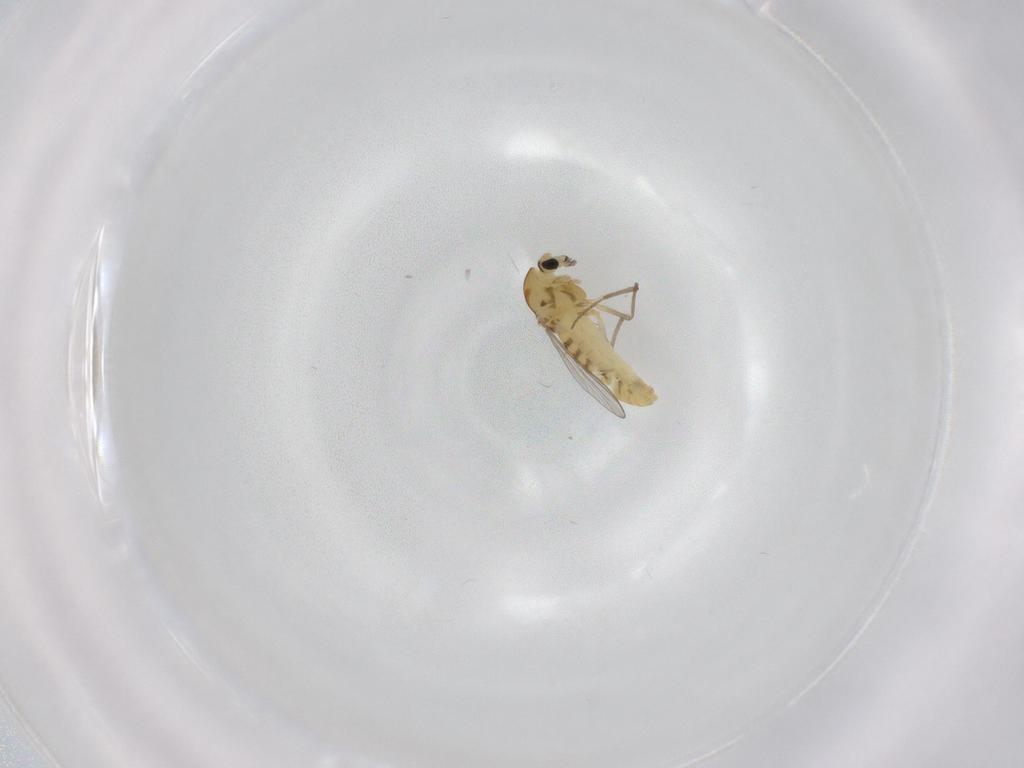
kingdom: Animalia
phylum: Arthropoda
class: Insecta
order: Diptera
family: Chironomidae
